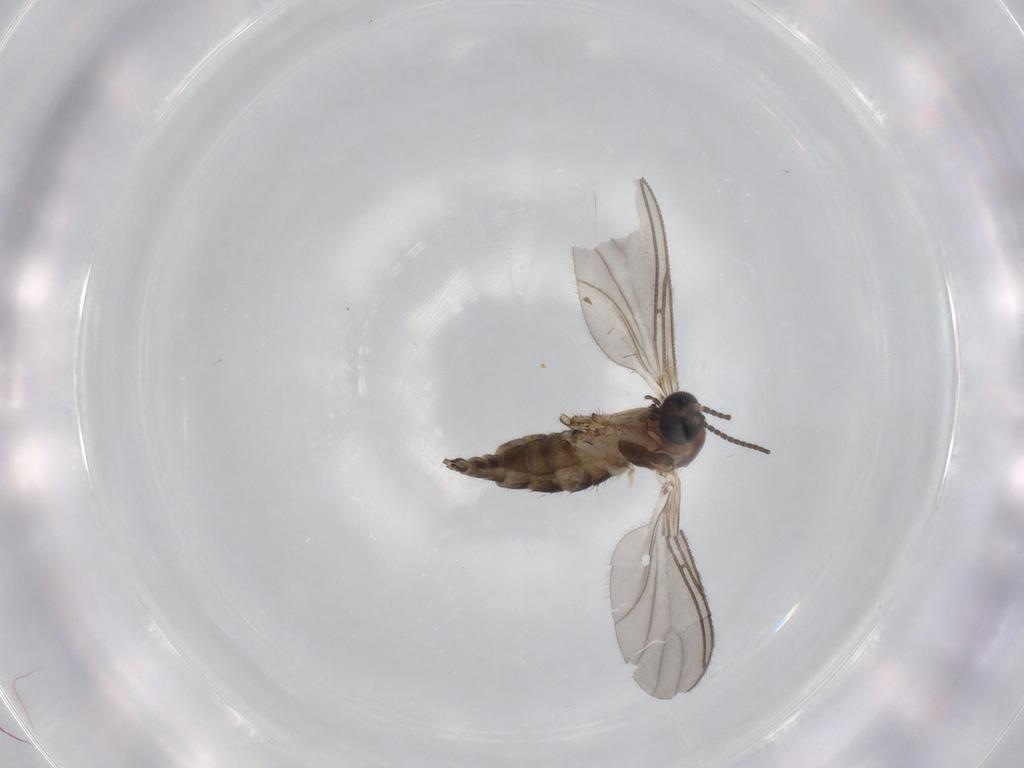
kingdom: Animalia
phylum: Arthropoda
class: Insecta
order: Diptera
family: Sciaridae
